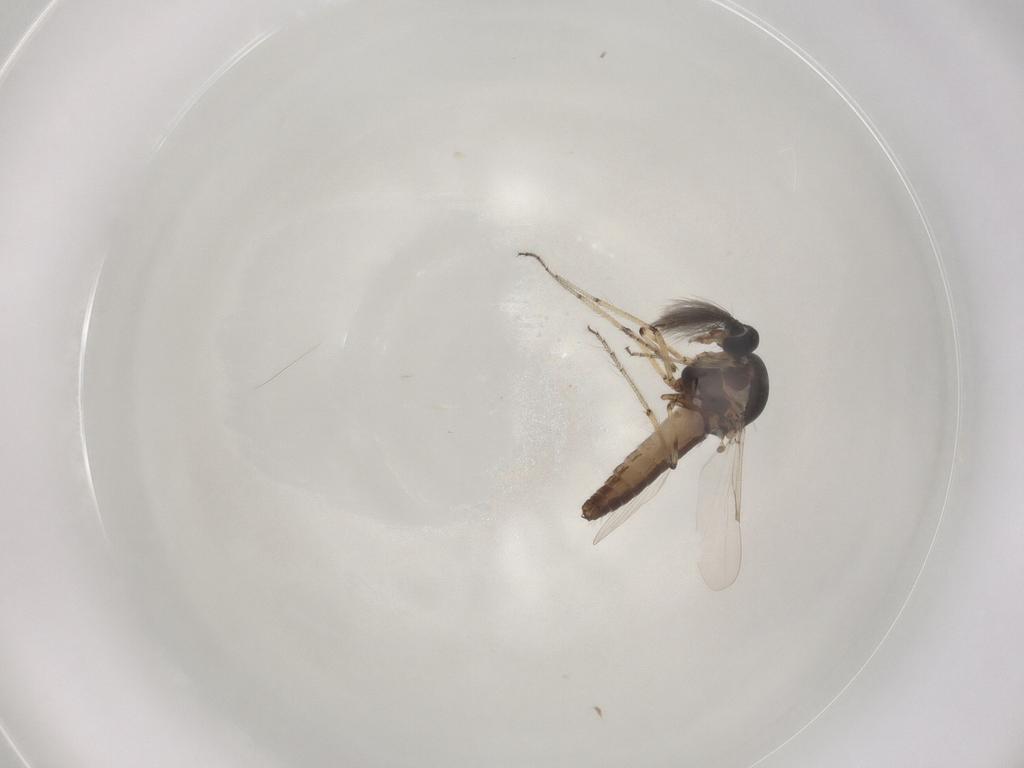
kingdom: Animalia
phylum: Arthropoda
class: Insecta
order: Diptera
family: Ceratopogonidae
